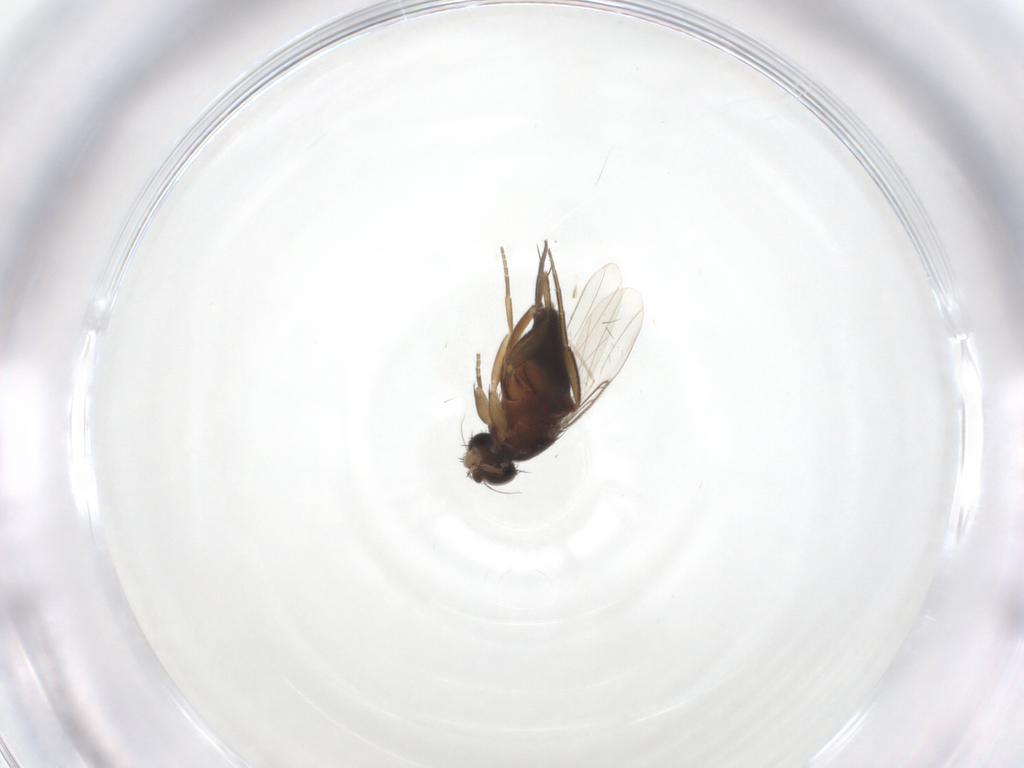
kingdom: Animalia
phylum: Arthropoda
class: Insecta
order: Diptera
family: Phoridae
